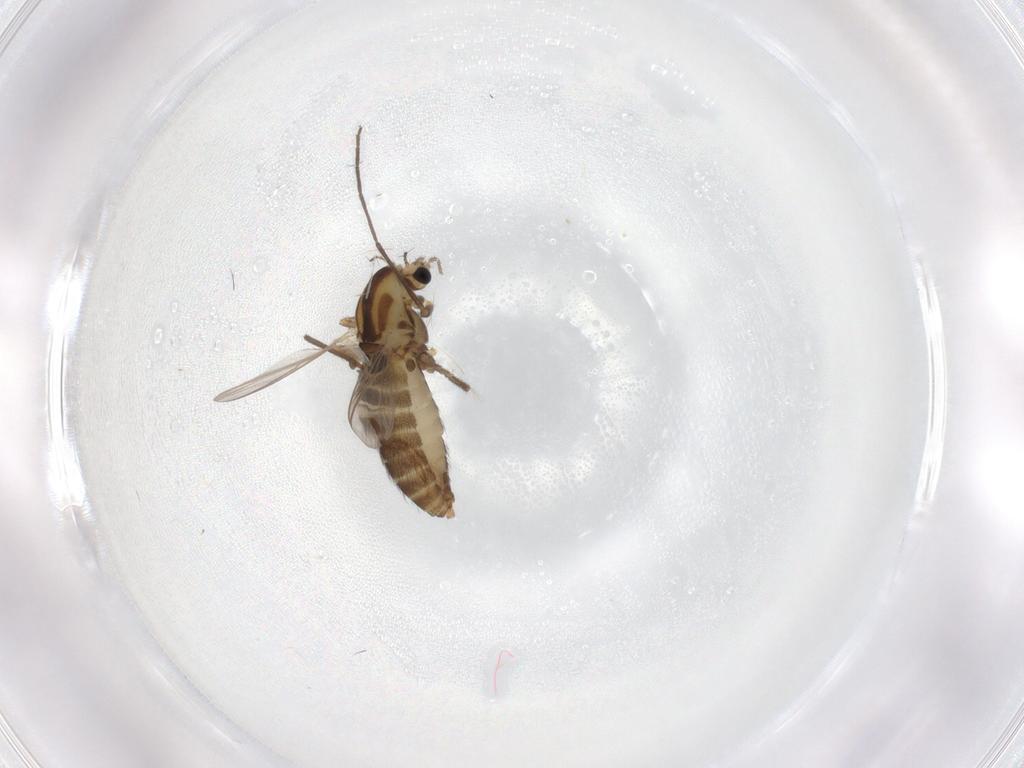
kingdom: Animalia
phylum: Arthropoda
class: Insecta
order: Diptera
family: Chironomidae
